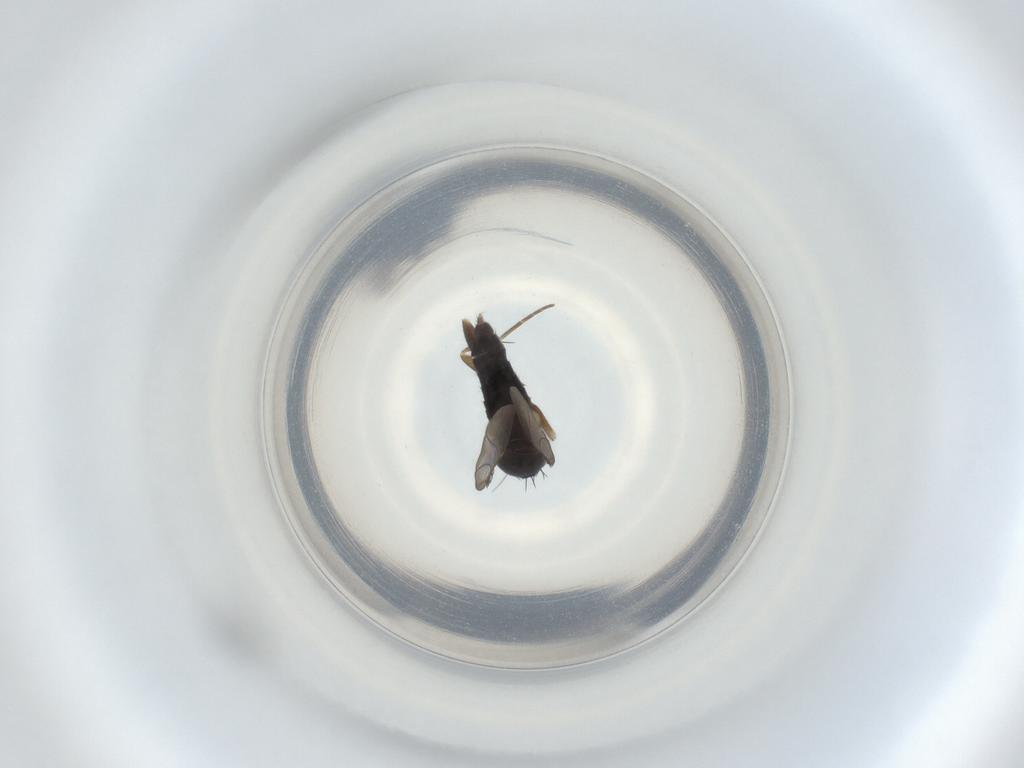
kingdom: Animalia
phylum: Arthropoda
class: Insecta
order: Diptera
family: Phoridae
